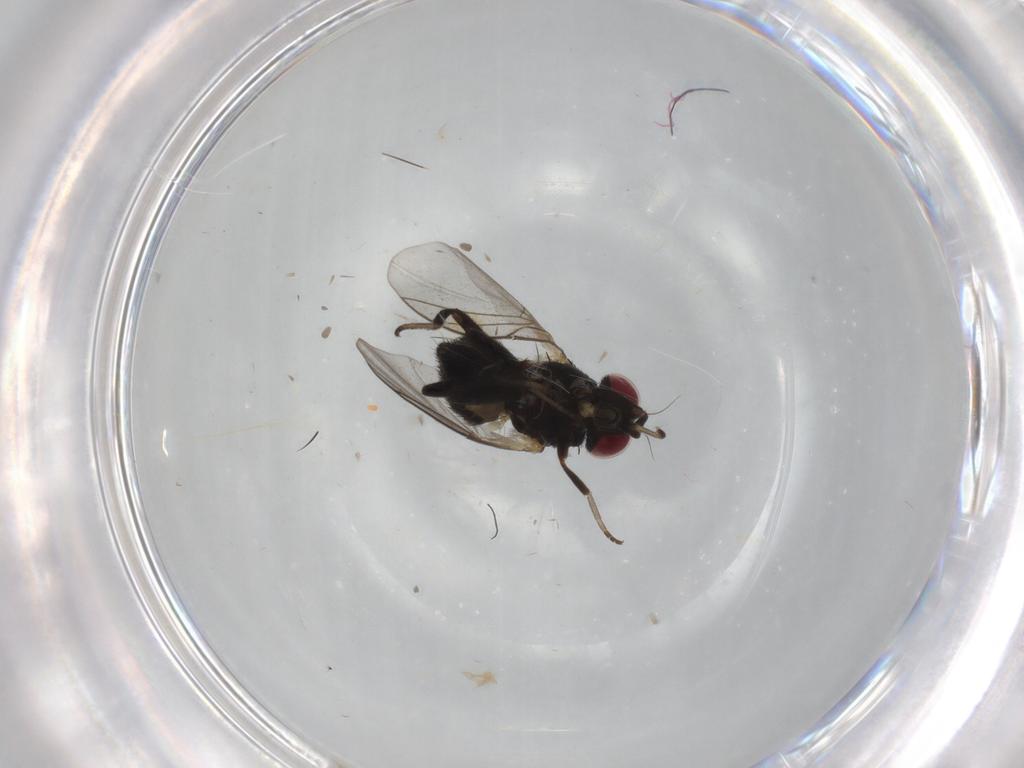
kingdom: Animalia
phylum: Arthropoda
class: Insecta
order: Diptera
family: Agromyzidae
